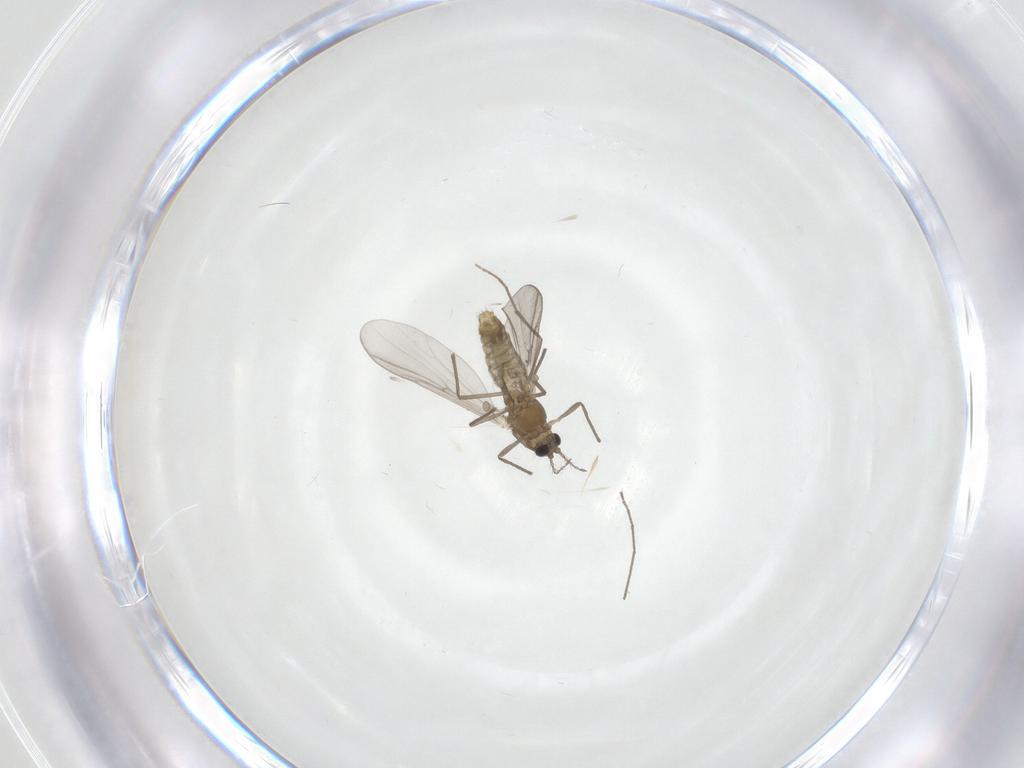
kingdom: Animalia
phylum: Arthropoda
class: Insecta
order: Diptera
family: Chironomidae
